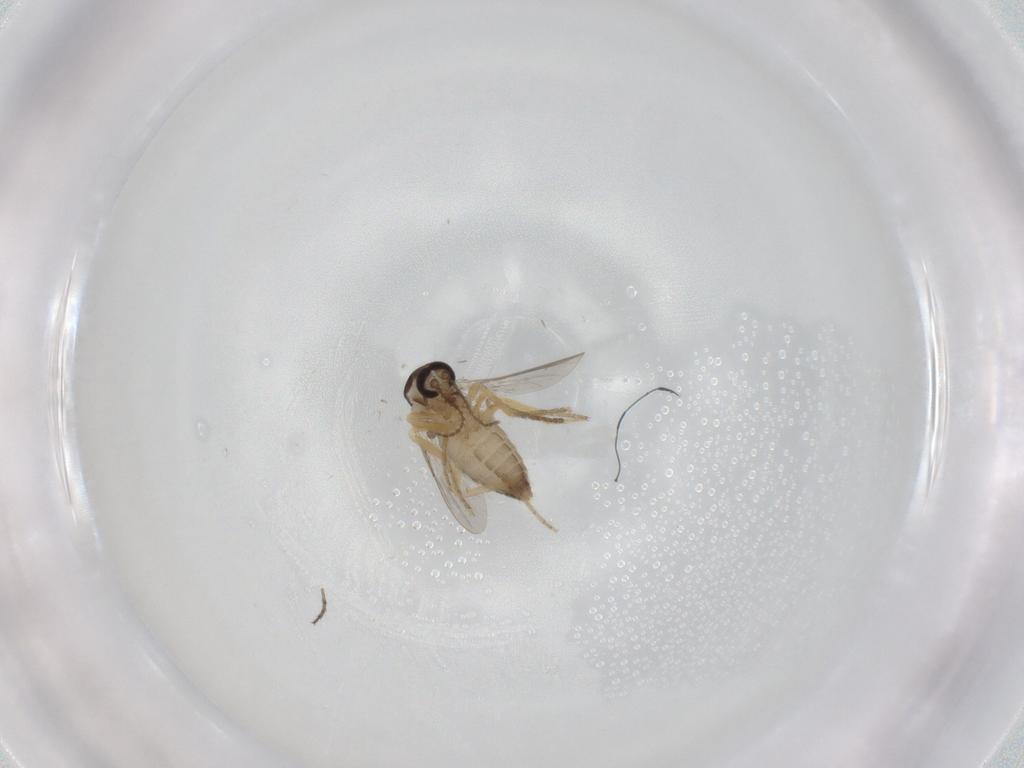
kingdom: Animalia
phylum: Arthropoda
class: Insecta
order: Diptera
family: Ceratopogonidae
